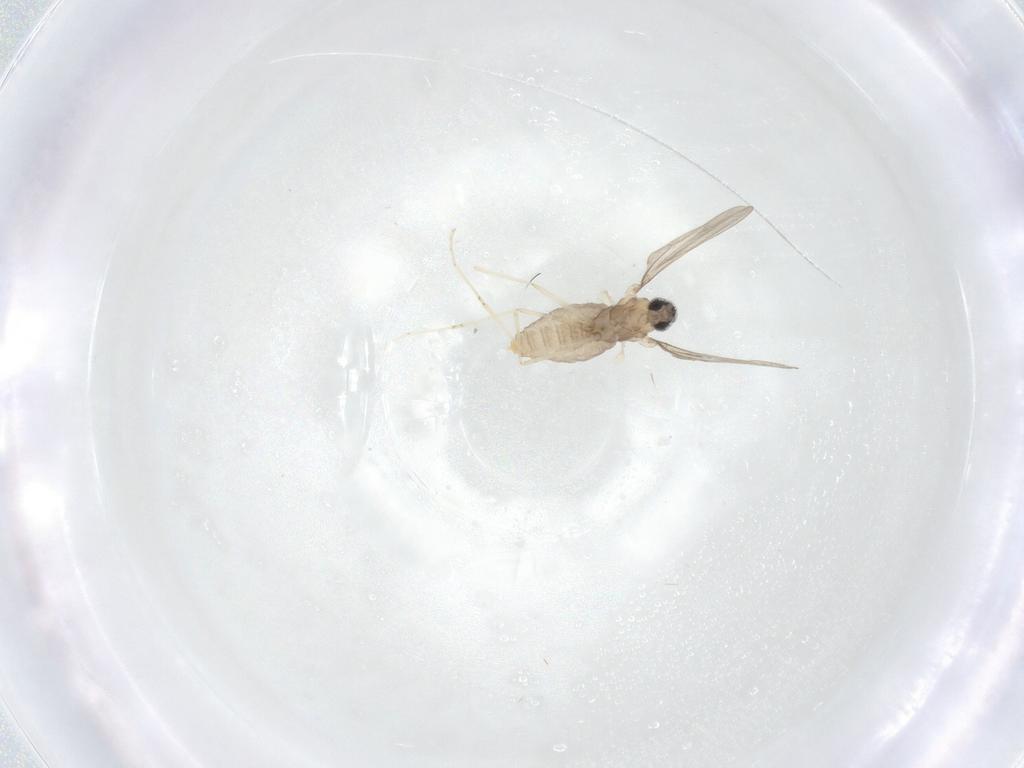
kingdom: Animalia
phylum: Arthropoda
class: Insecta
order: Diptera
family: Cecidomyiidae
